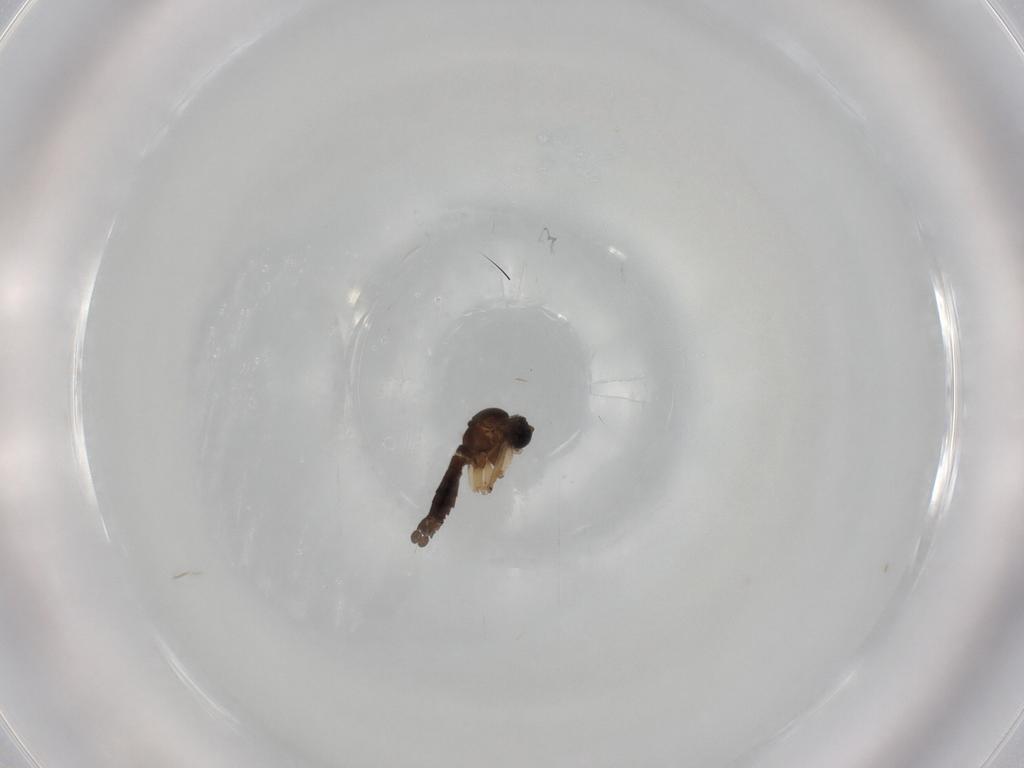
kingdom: Animalia
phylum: Arthropoda
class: Insecta
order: Diptera
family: Sciaridae
